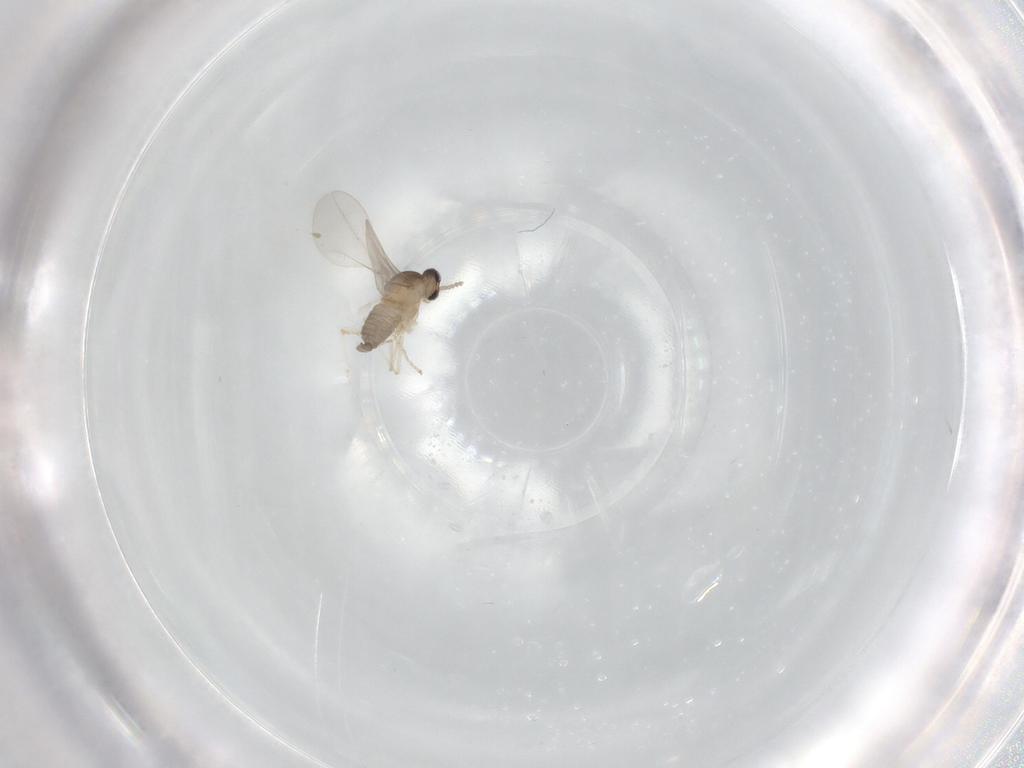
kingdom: Animalia
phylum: Arthropoda
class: Insecta
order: Diptera
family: Cecidomyiidae
